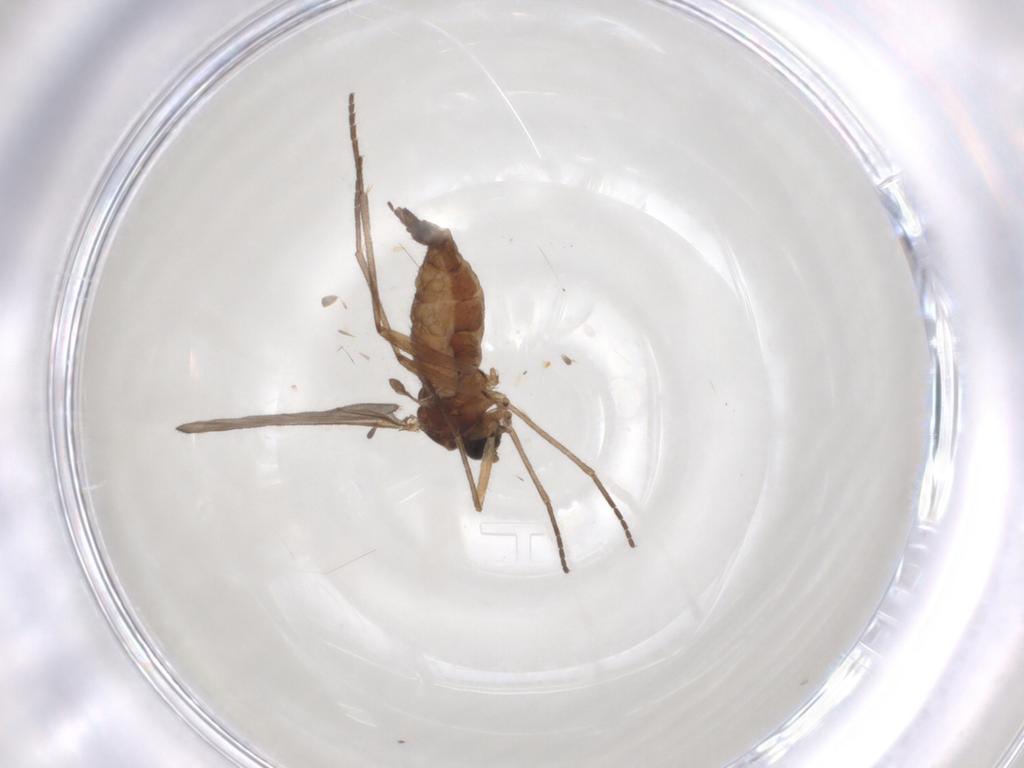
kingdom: Animalia
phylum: Arthropoda
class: Insecta
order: Diptera
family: Sciaridae
